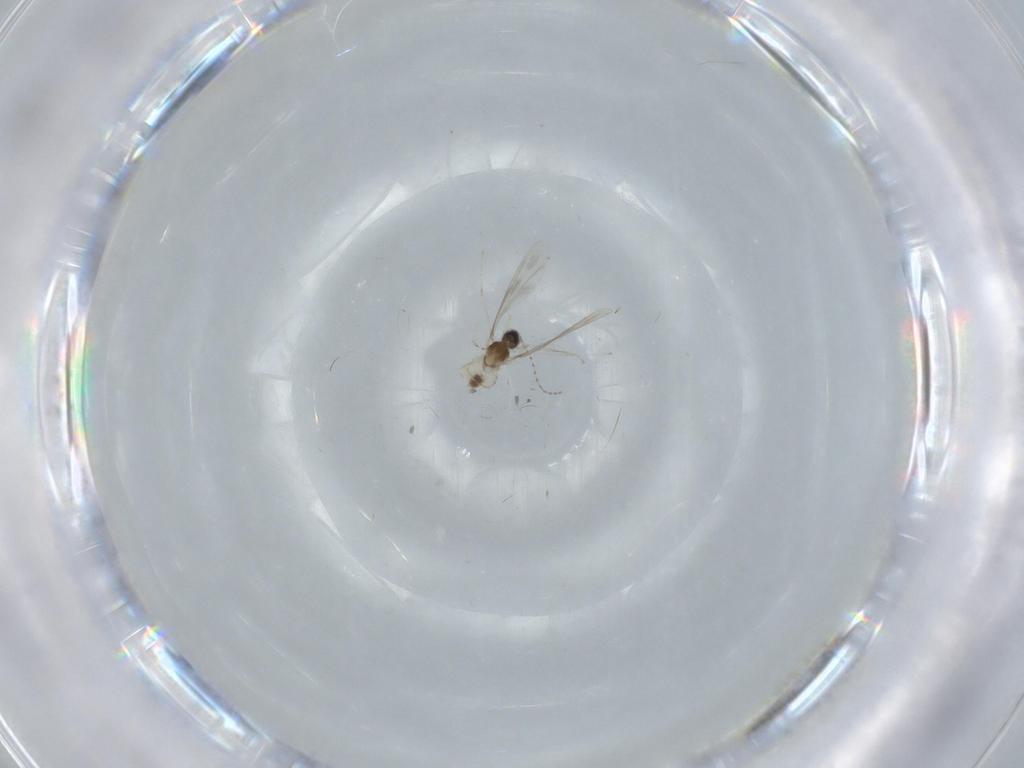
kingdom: Animalia
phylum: Arthropoda
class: Insecta
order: Diptera
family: Cecidomyiidae
